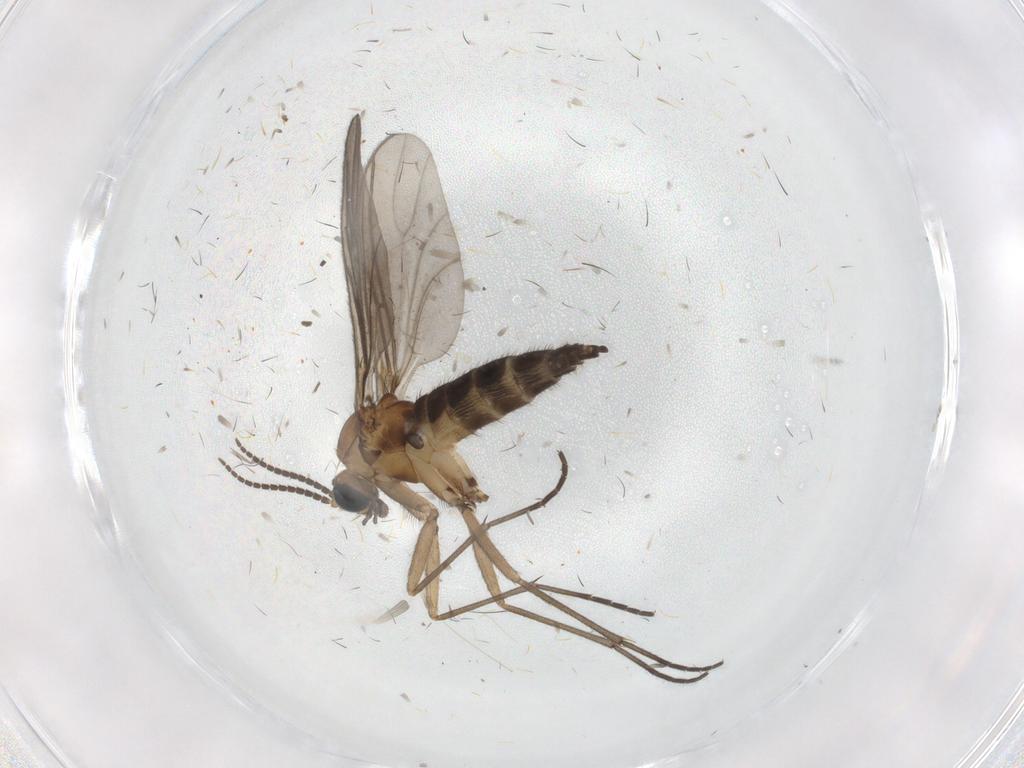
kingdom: Animalia
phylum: Arthropoda
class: Insecta
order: Diptera
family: Sciaridae
